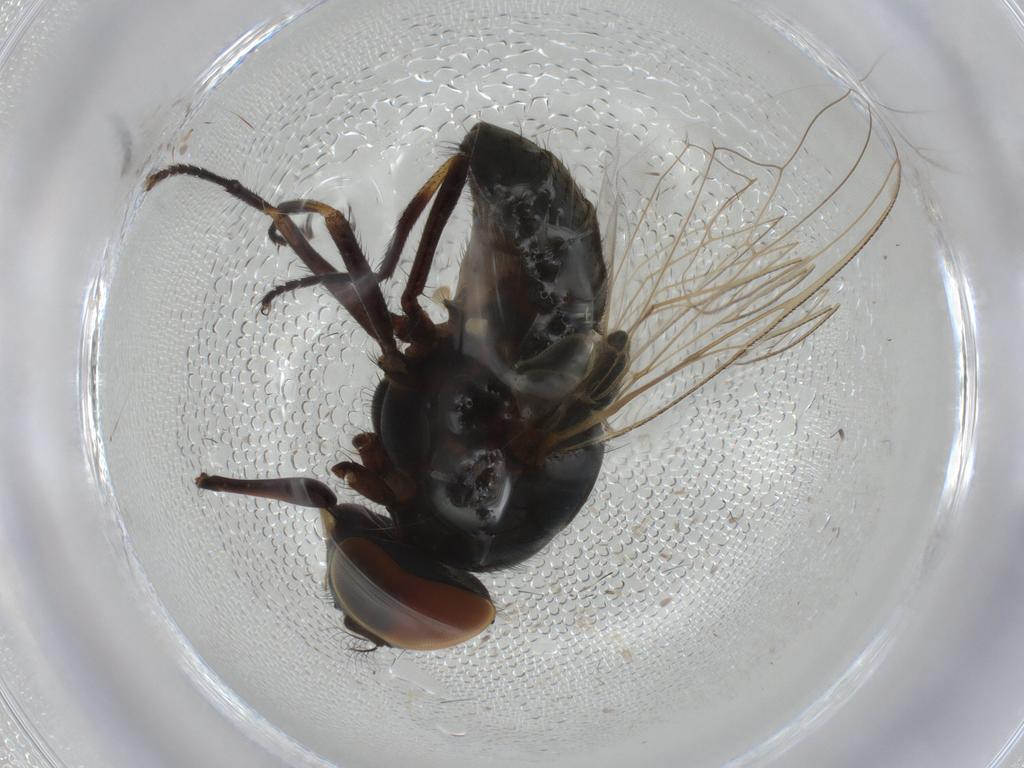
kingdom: Animalia
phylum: Arthropoda
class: Insecta
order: Diptera
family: Muscidae
